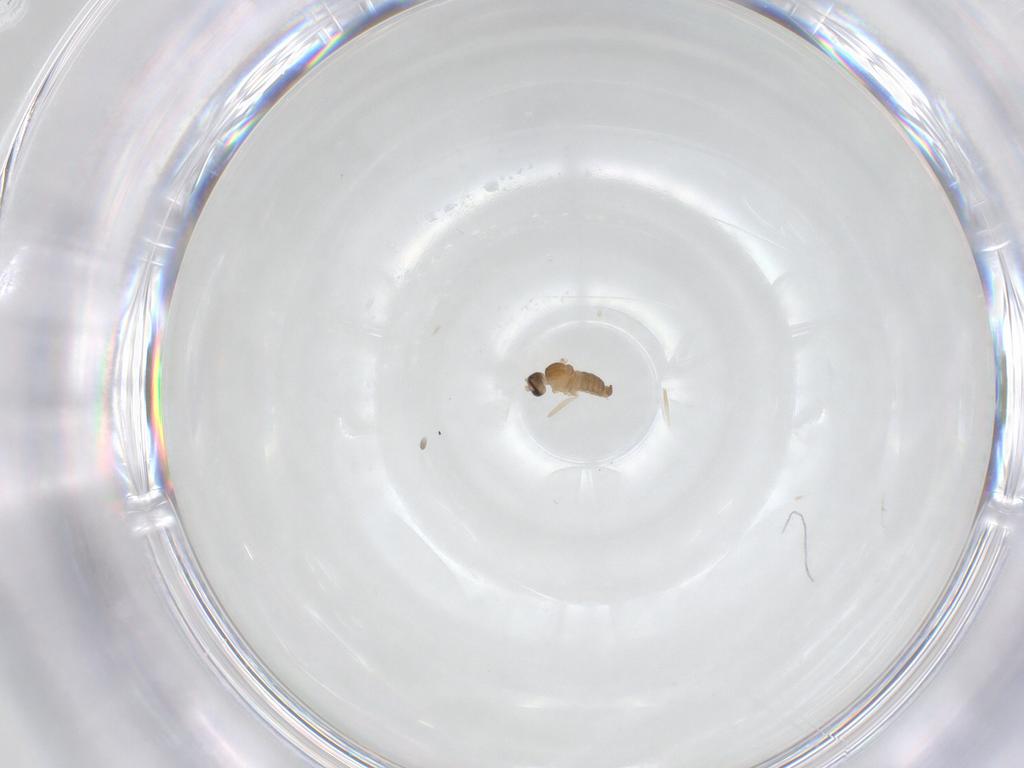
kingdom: Animalia
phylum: Arthropoda
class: Insecta
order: Diptera
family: Cecidomyiidae
